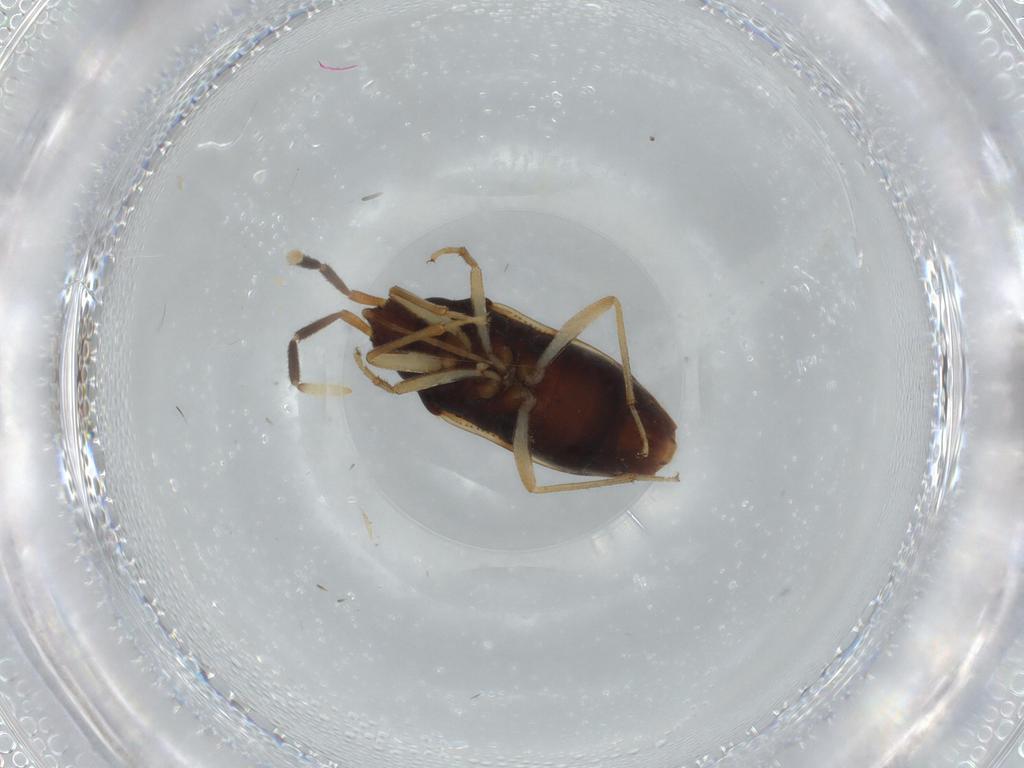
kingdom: Animalia
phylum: Arthropoda
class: Insecta
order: Hemiptera
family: Rhyparochromidae
